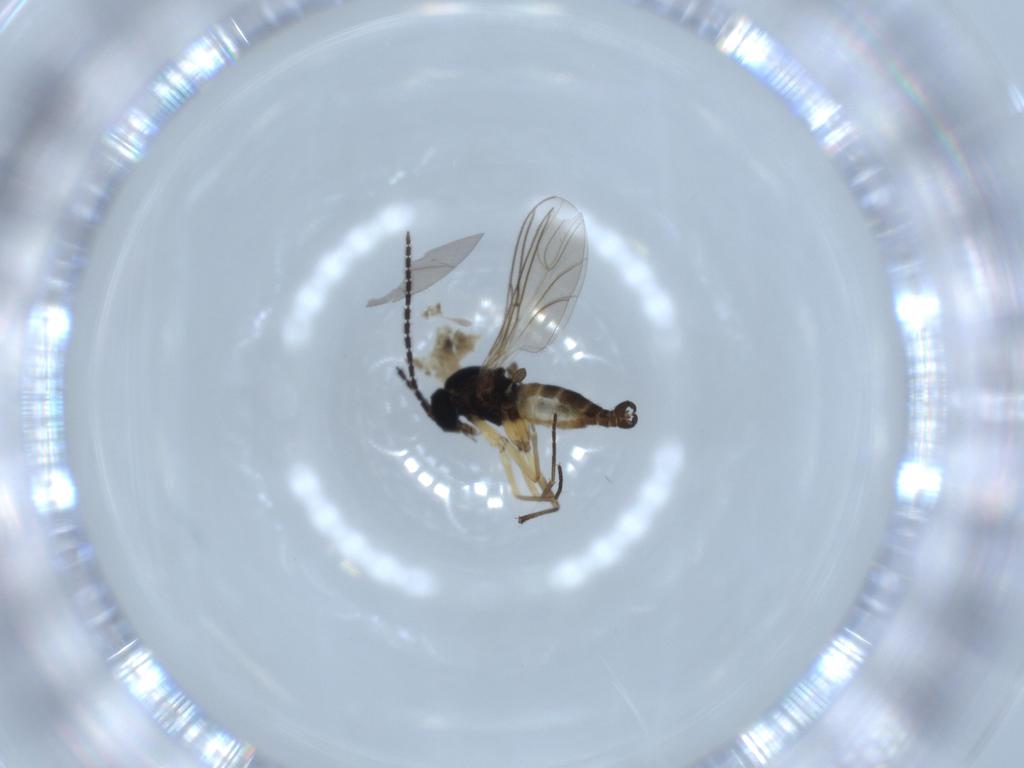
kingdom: Animalia
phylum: Arthropoda
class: Insecta
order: Diptera
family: Sciaridae
